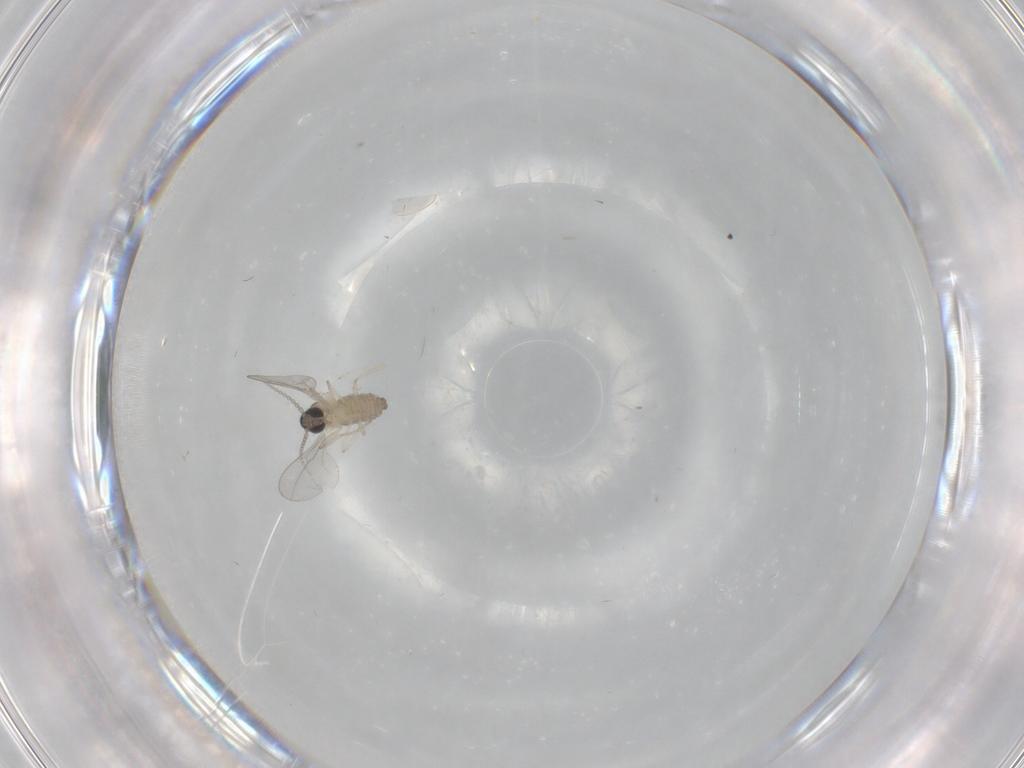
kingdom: Animalia
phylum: Arthropoda
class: Insecta
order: Diptera
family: Cecidomyiidae
